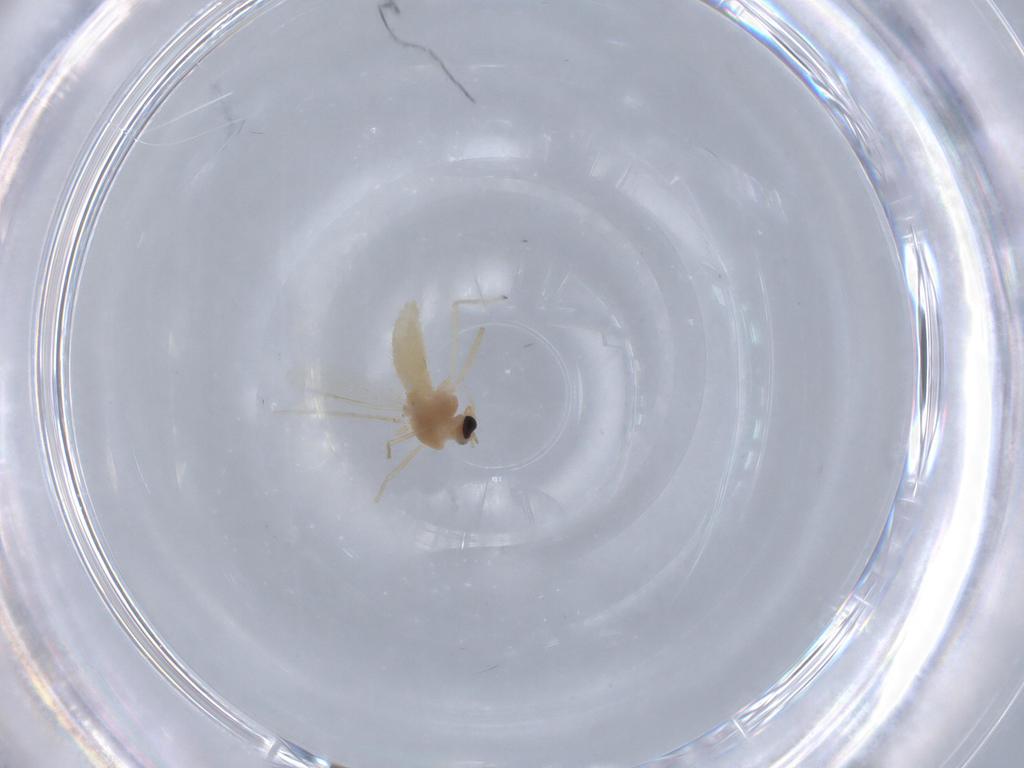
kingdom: Animalia
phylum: Arthropoda
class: Insecta
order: Diptera
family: Chironomidae
